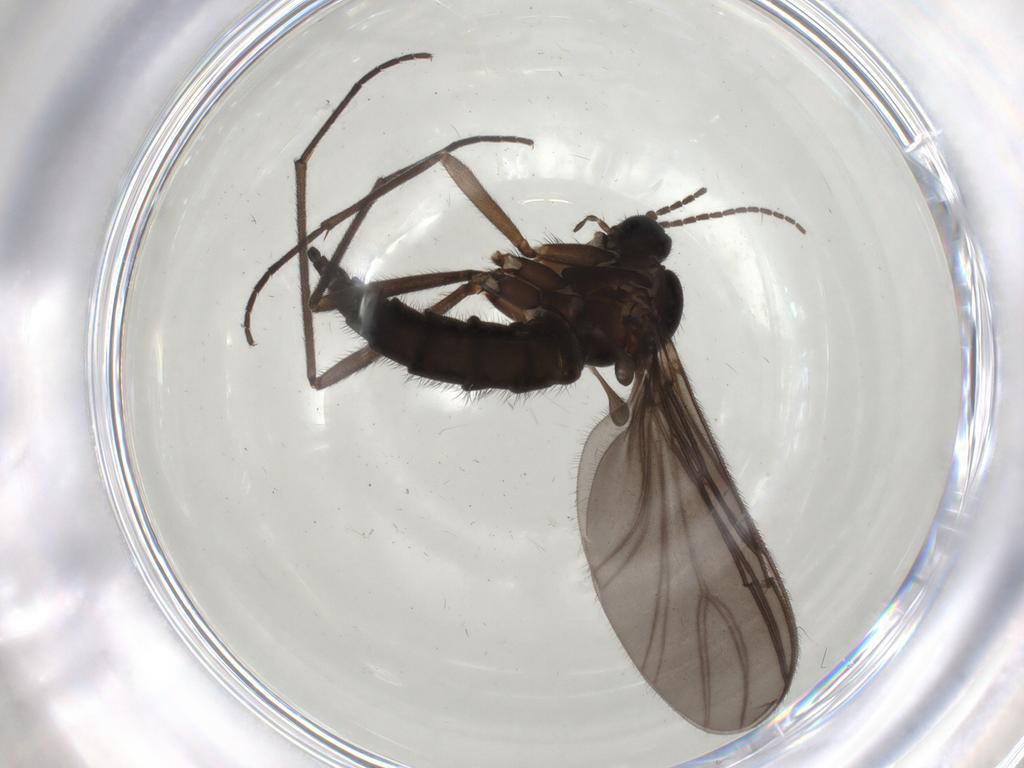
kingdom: Animalia
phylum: Arthropoda
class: Insecta
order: Diptera
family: Sciaridae
